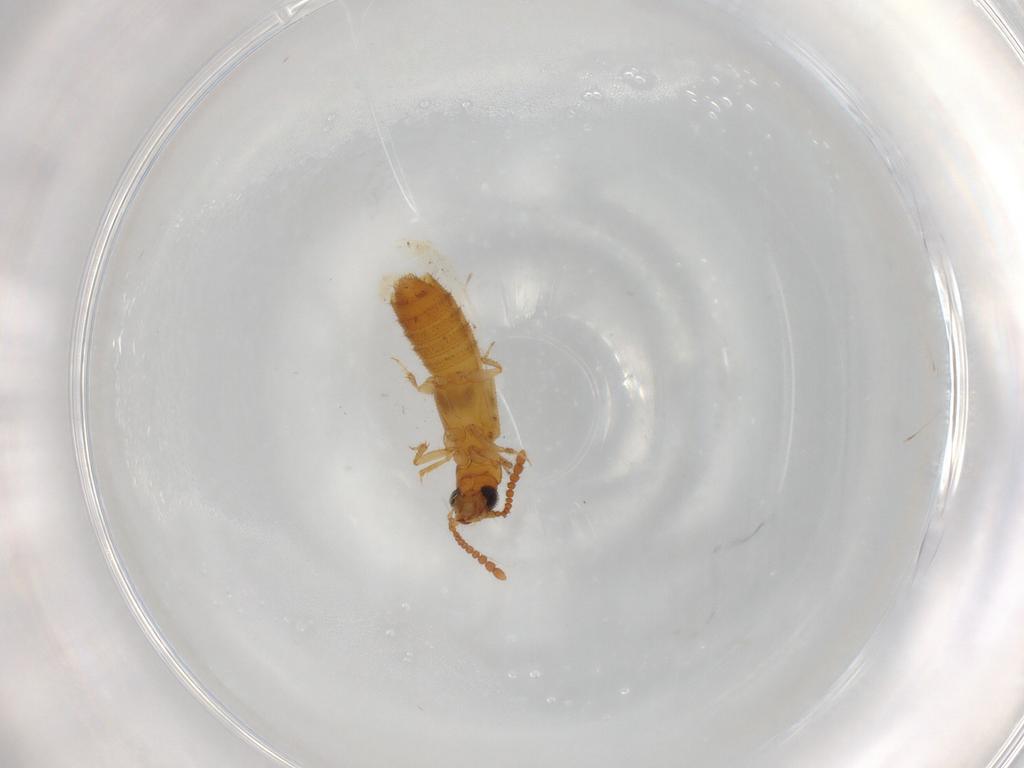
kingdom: Animalia
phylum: Arthropoda
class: Insecta
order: Coleoptera
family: Staphylinidae
